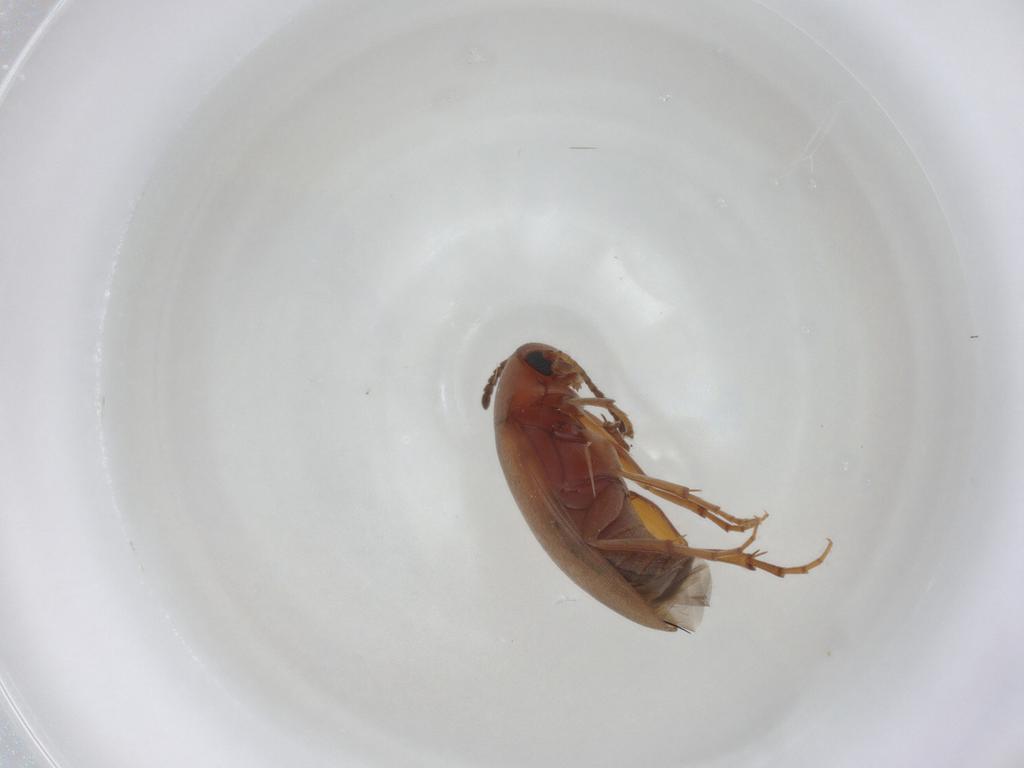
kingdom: Animalia
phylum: Arthropoda
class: Insecta
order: Coleoptera
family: Scraptiidae
